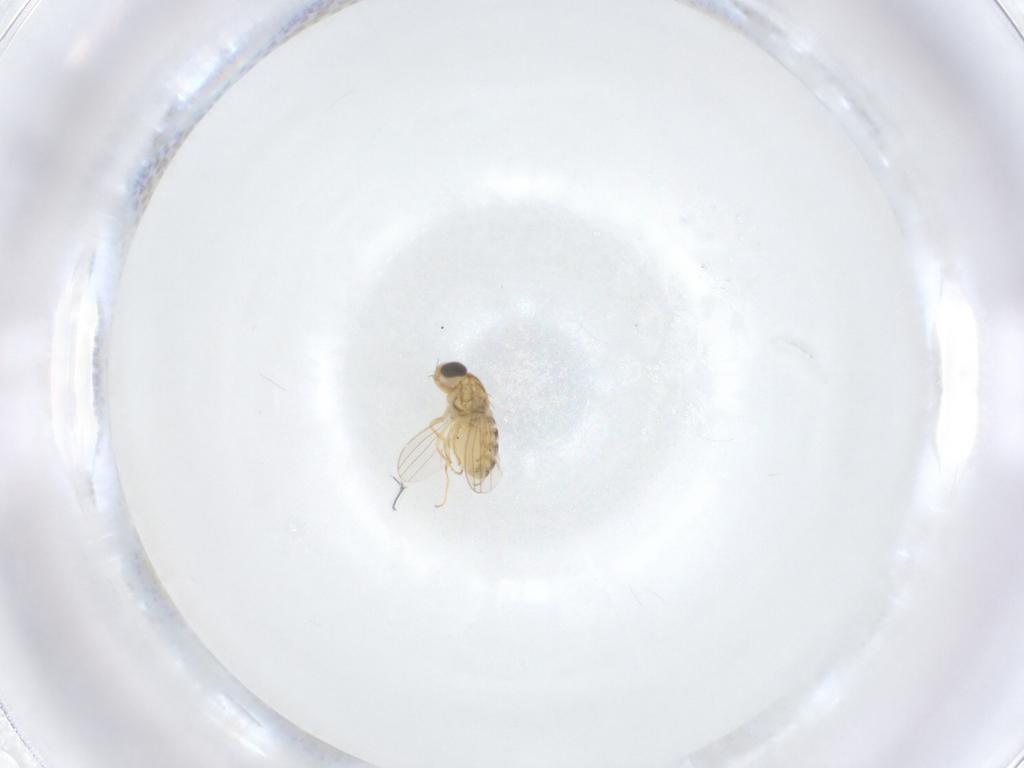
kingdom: Animalia
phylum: Arthropoda
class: Insecta
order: Diptera
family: Chyromyidae
